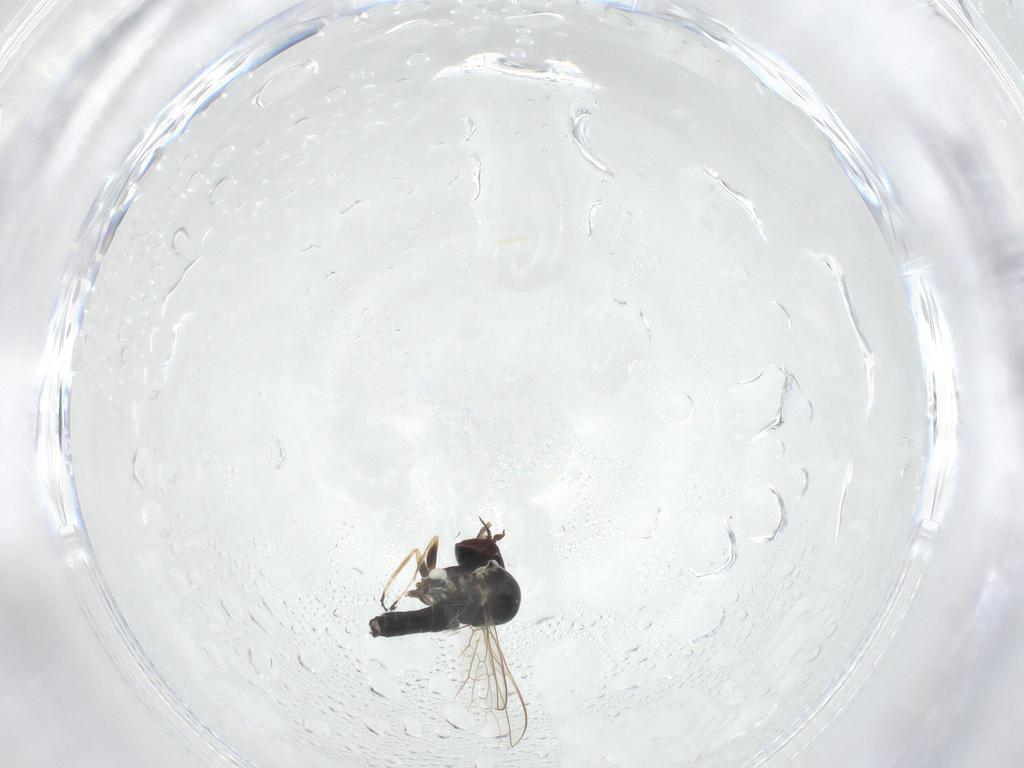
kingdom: Animalia
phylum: Arthropoda
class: Insecta
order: Diptera
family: Mythicomyiidae
